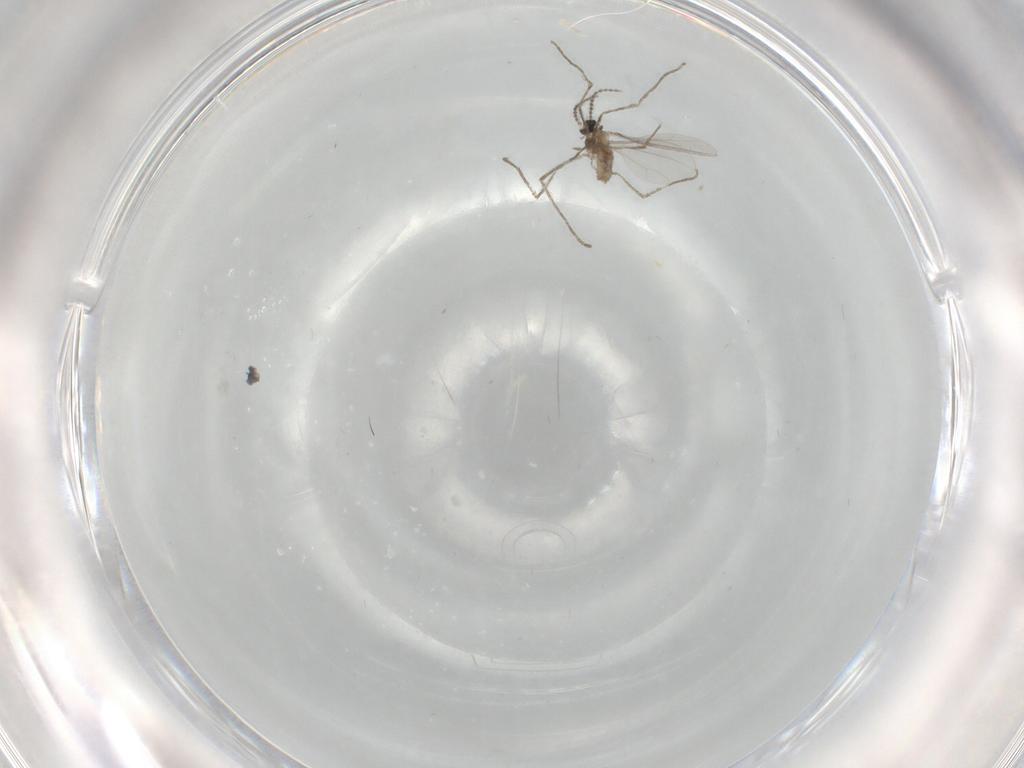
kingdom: Animalia
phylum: Arthropoda
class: Insecta
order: Diptera
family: Cecidomyiidae
